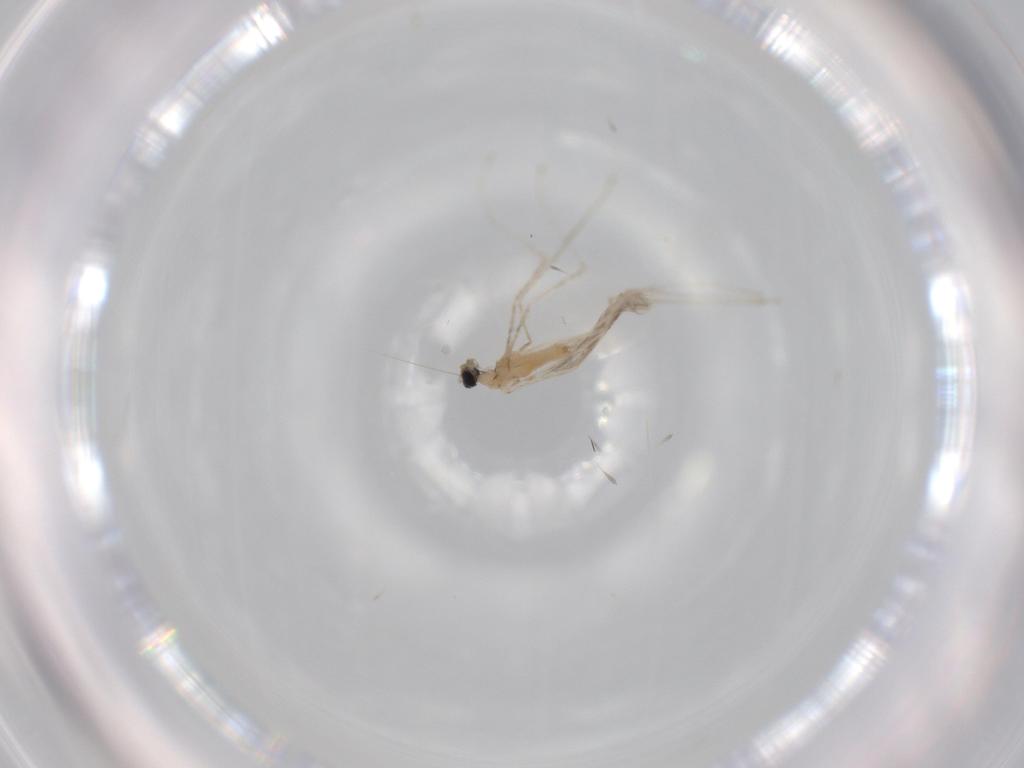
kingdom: Animalia
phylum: Arthropoda
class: Insecta
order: Diptera
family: Cecidomyiidae
